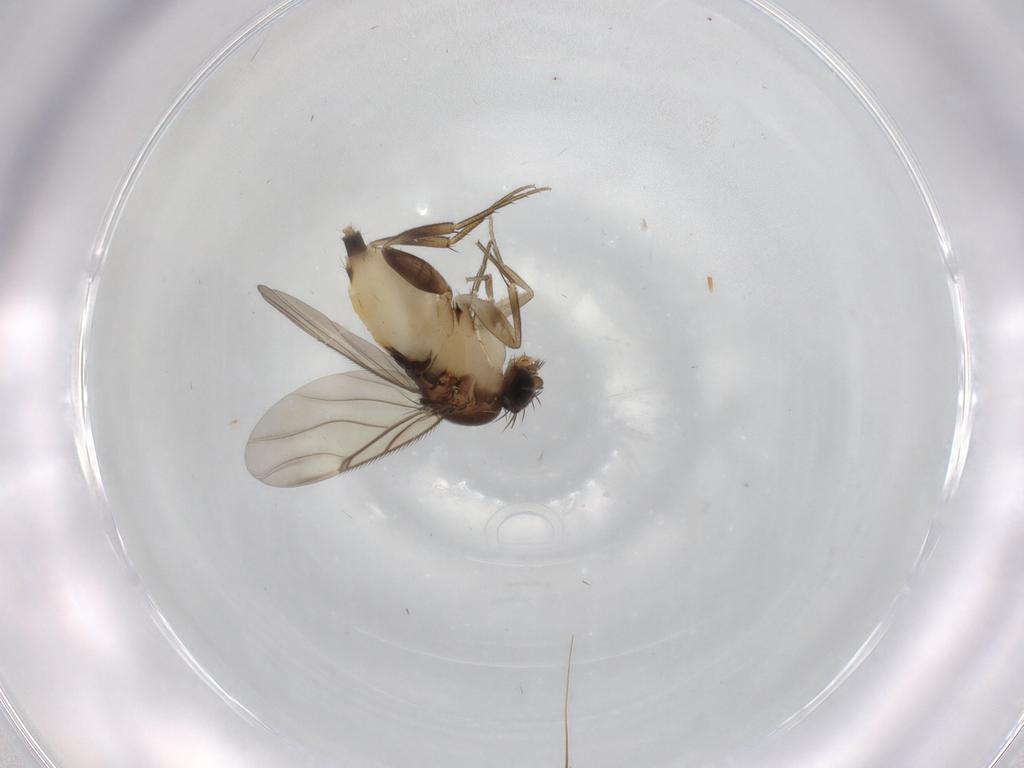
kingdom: Animalia
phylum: Arthropoda
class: Insecta
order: Diptera
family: Phoridae
